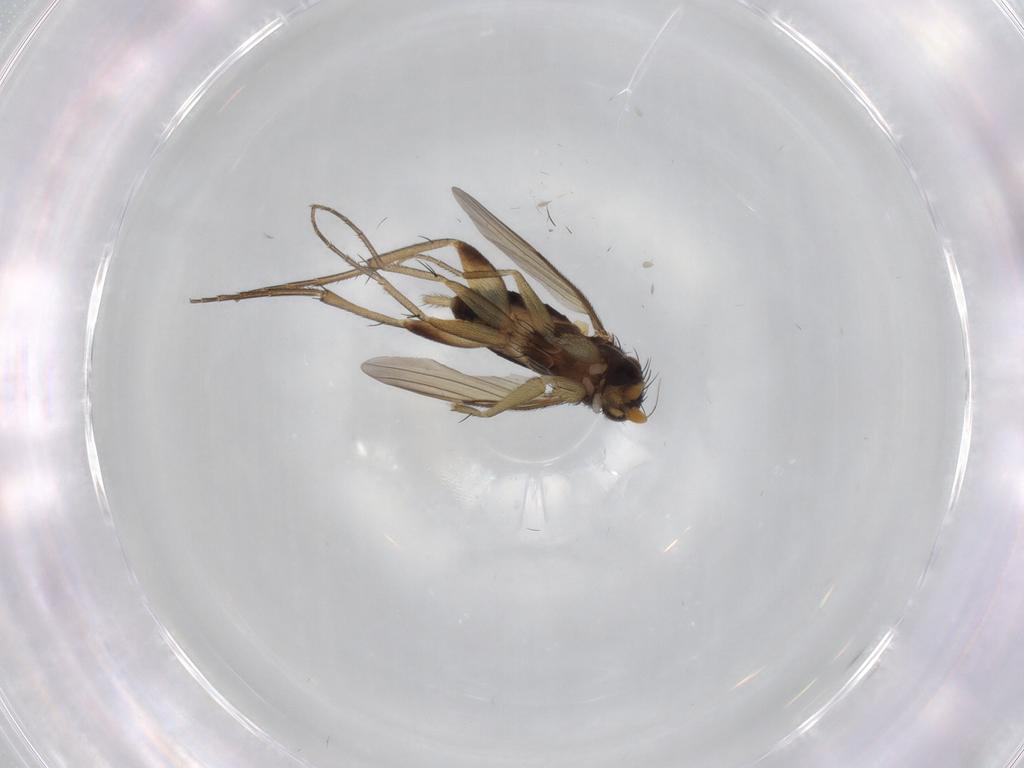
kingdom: Animalia
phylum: Arthropoda
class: Insecta
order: Diptera
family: Phoridae
